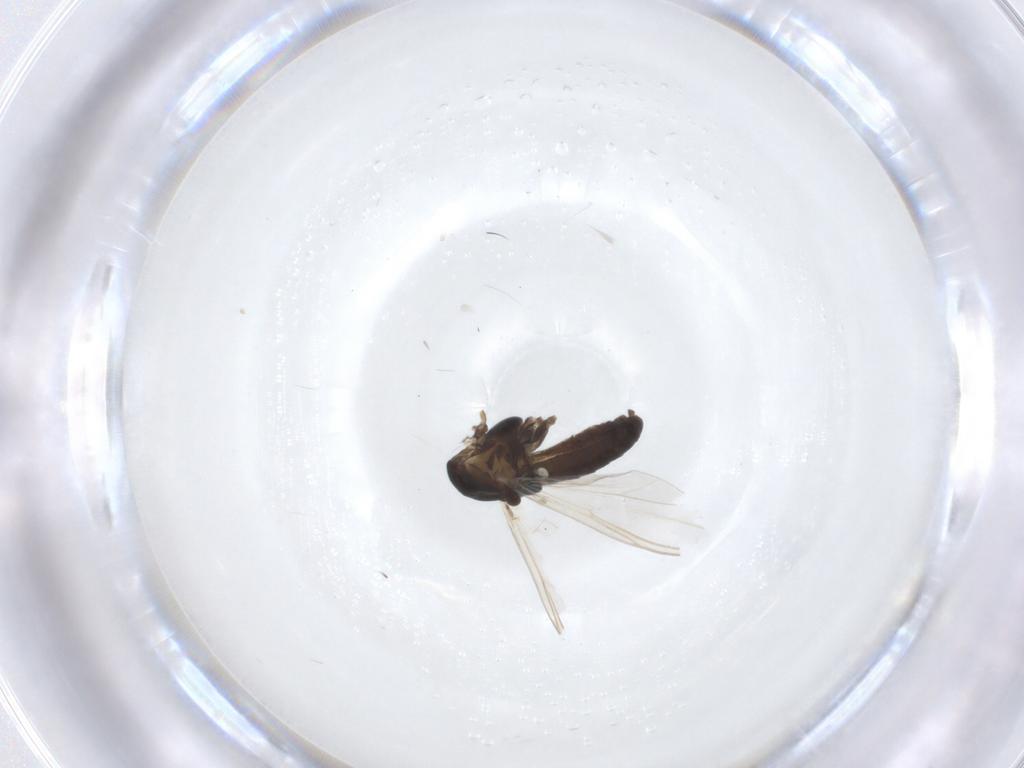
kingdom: Animalia
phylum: Arthropoda
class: Insecta
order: Diptera
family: Chironomidae
